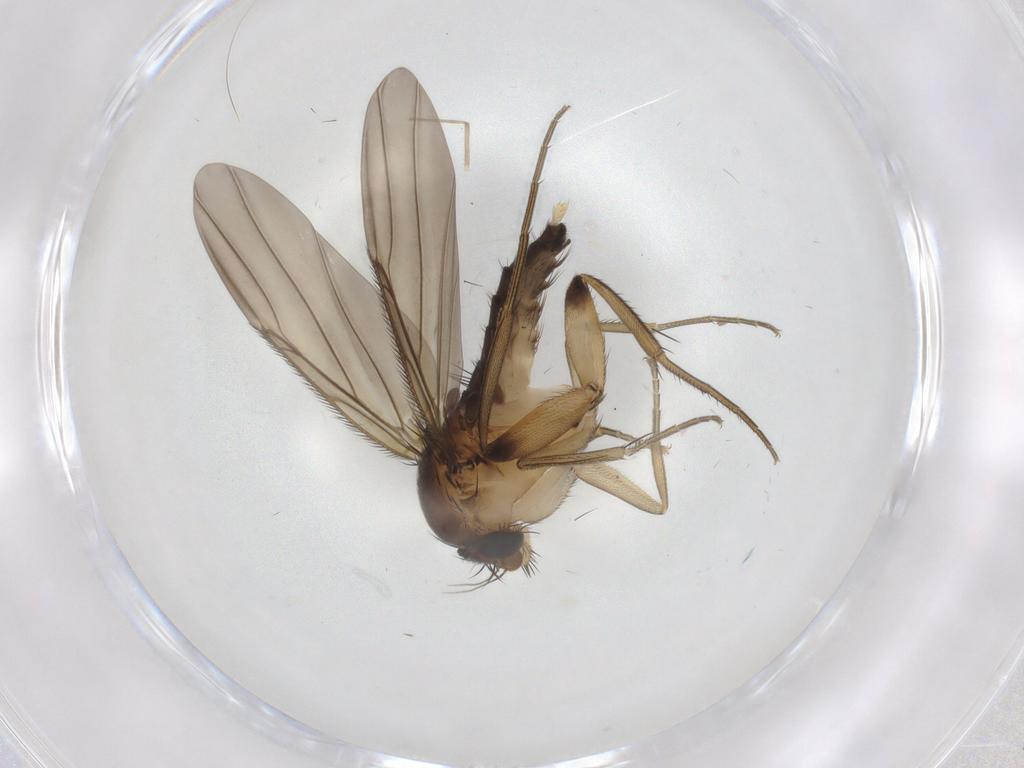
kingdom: Animalia
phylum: Arthropoda
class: Insecta
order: Diptera
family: Phoridae
